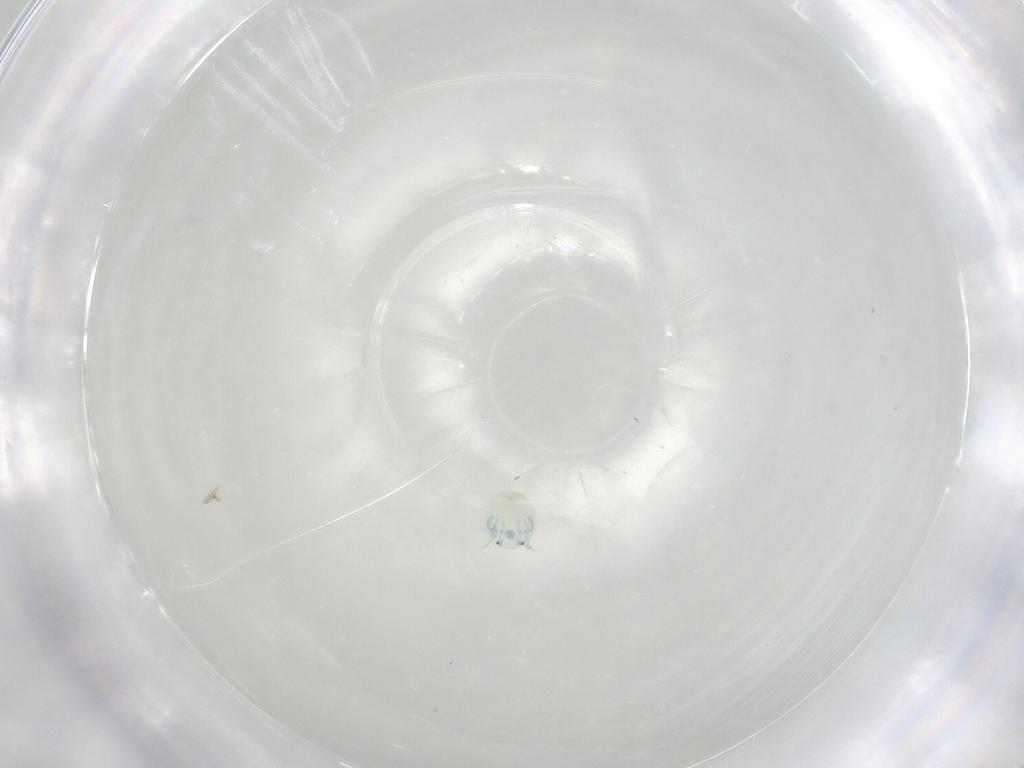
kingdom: Animalia
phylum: Arthropoda
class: Arachnida
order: Trombidiformes
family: Arrenuridae
